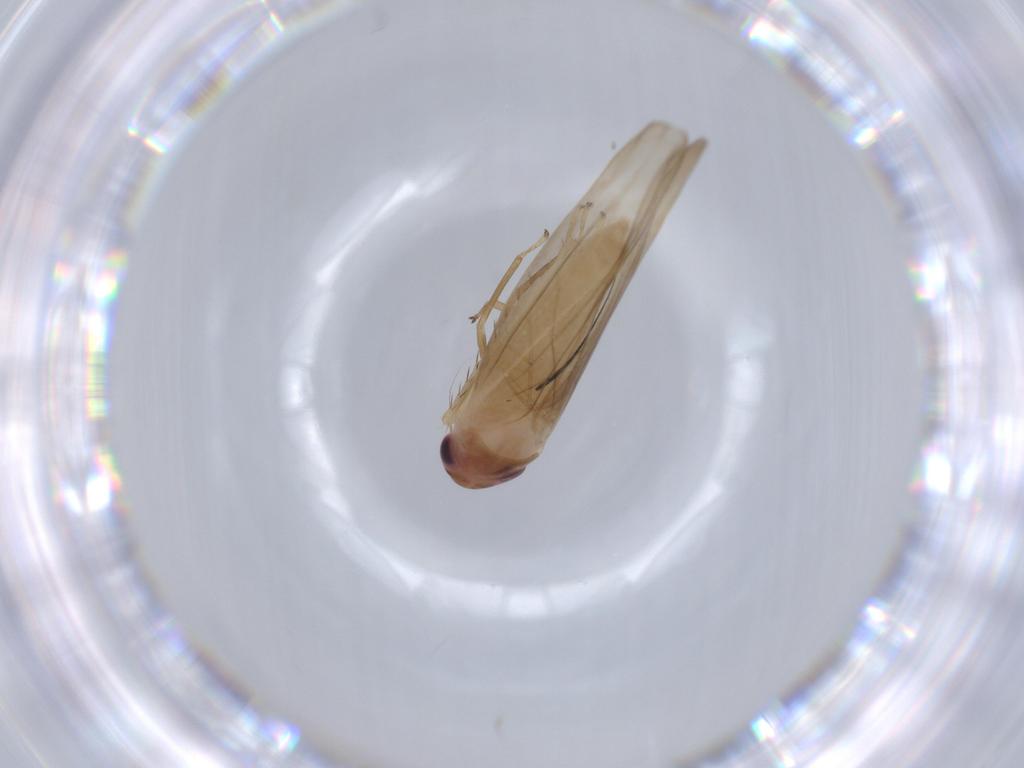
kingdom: Animalia
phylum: Arthropoda
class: Insecta
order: Hemiptera
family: Cicadellidae
